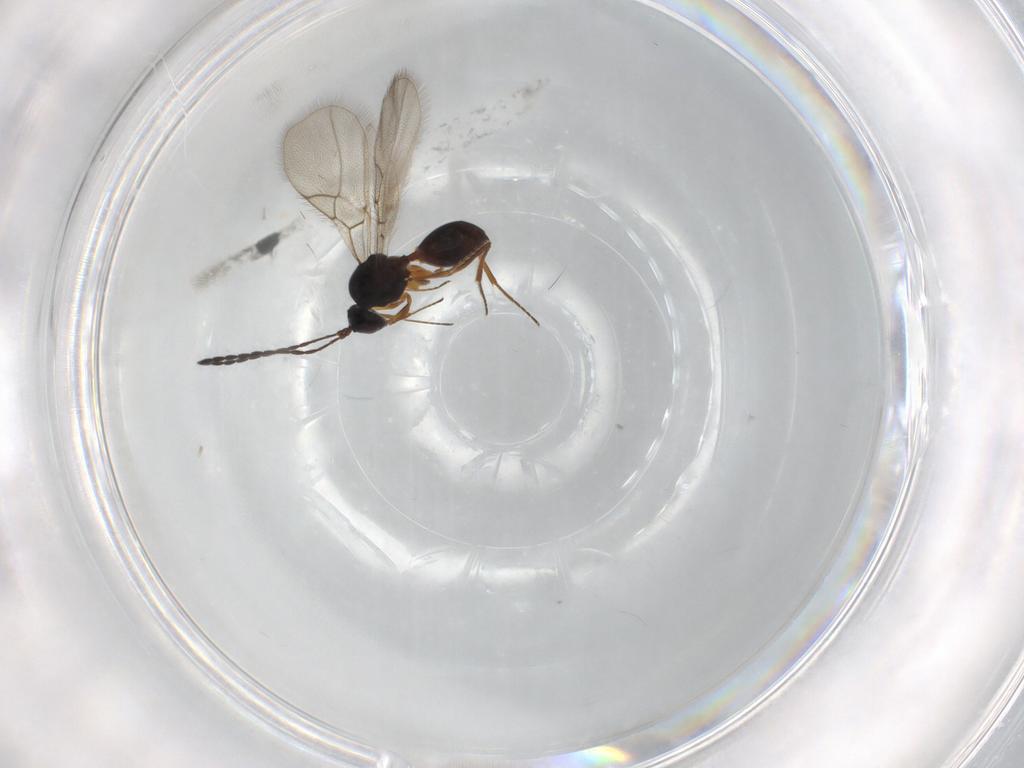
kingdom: Animalia
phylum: Arthropoda
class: Insecta
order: Hymenoptera
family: Figitidae
